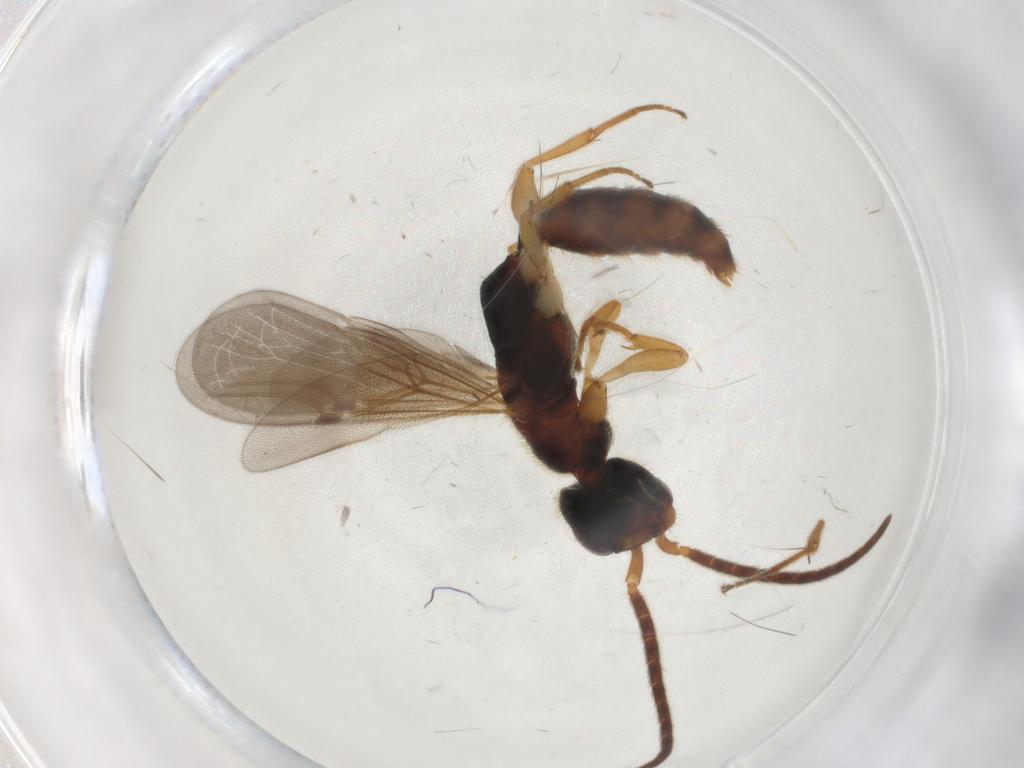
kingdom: Animalia
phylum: Arthropoda
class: Insecta
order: Hymenoptera
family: Bethylidae
